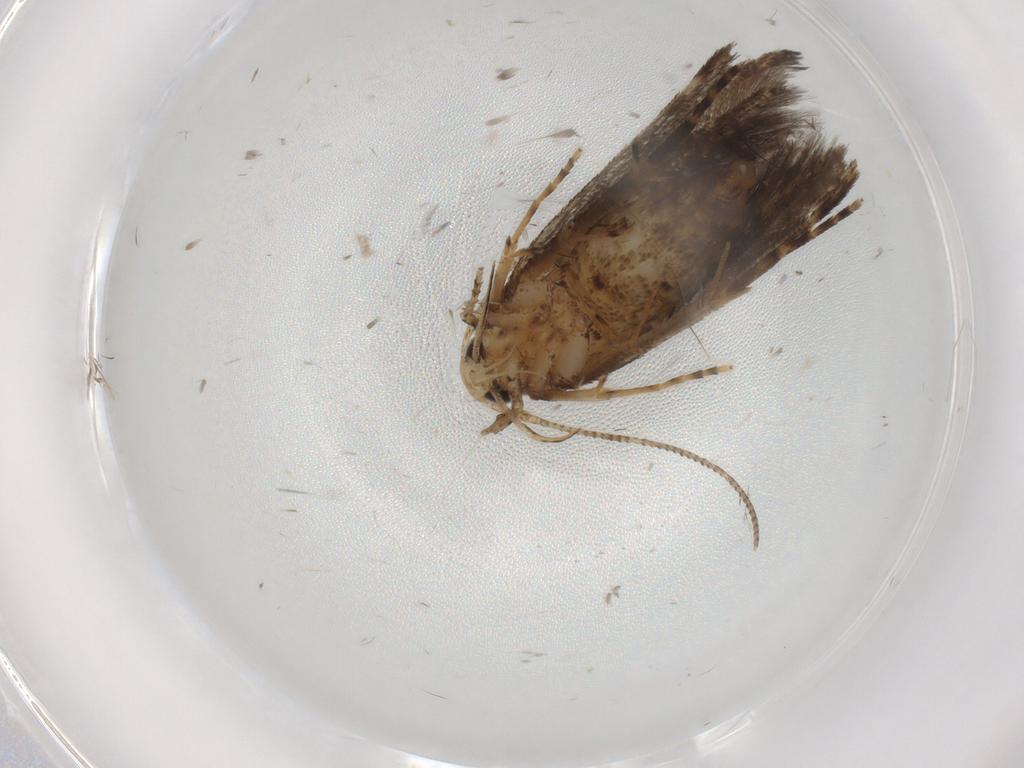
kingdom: Animalia
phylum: Arthropoda
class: Insecta
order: Lepidoptera
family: Cosmopterigidae
